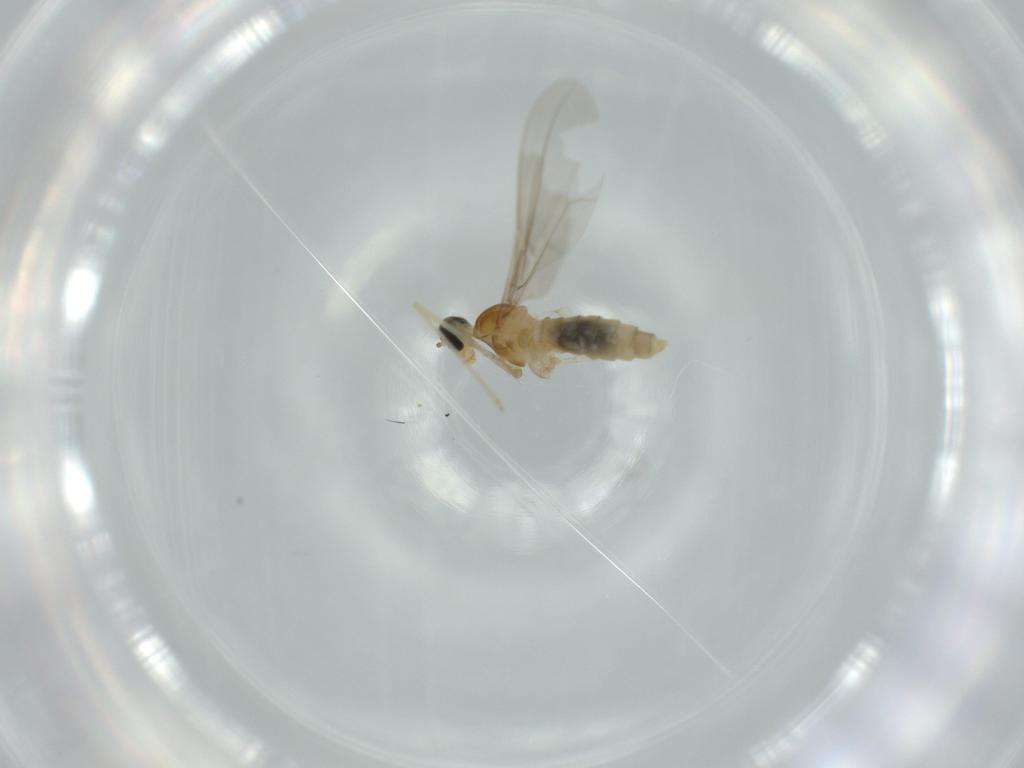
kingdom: Animalia
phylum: Arthropoda
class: Insecta
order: Diptera
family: Cecidomyiidae
